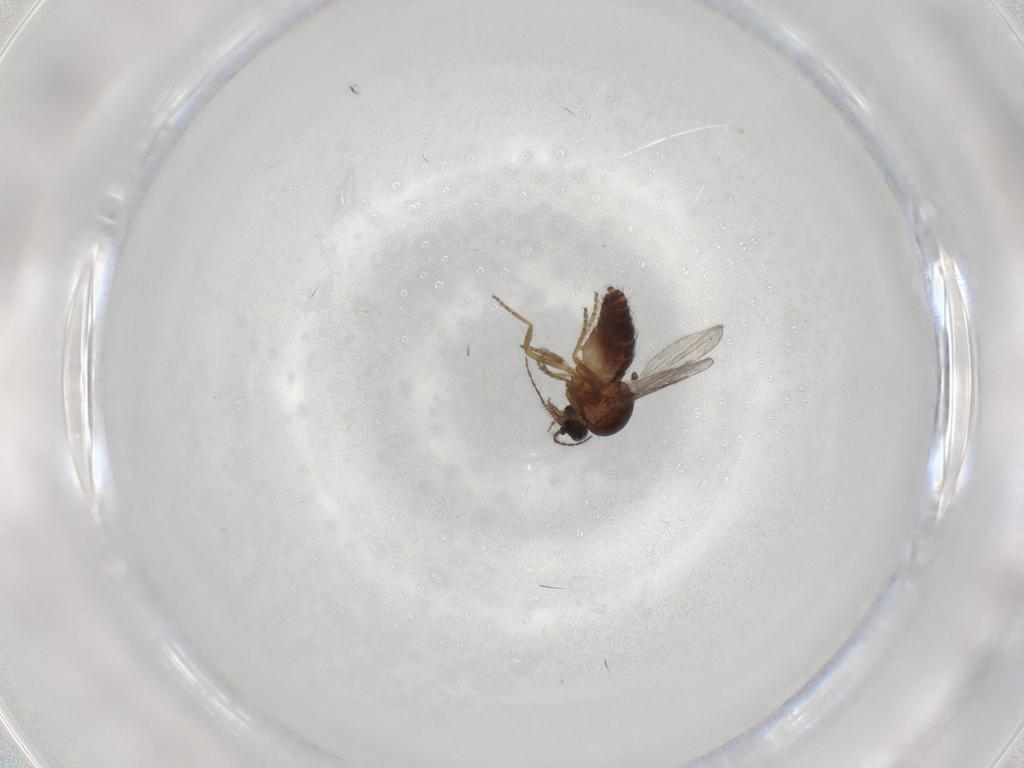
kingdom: Animalia
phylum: Arthropoda
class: Insecta
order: Diptera
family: Ceratopogonidae
